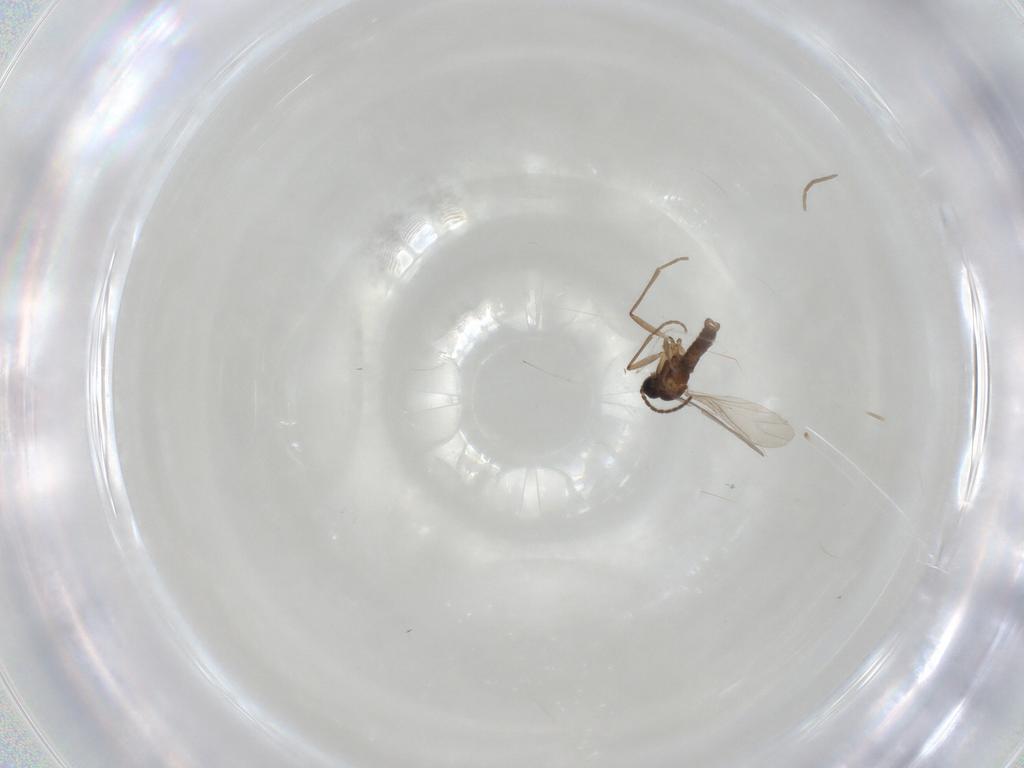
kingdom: Animalia
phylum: Arthropoda
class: Insecta
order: Diptera
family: Sciaridae
